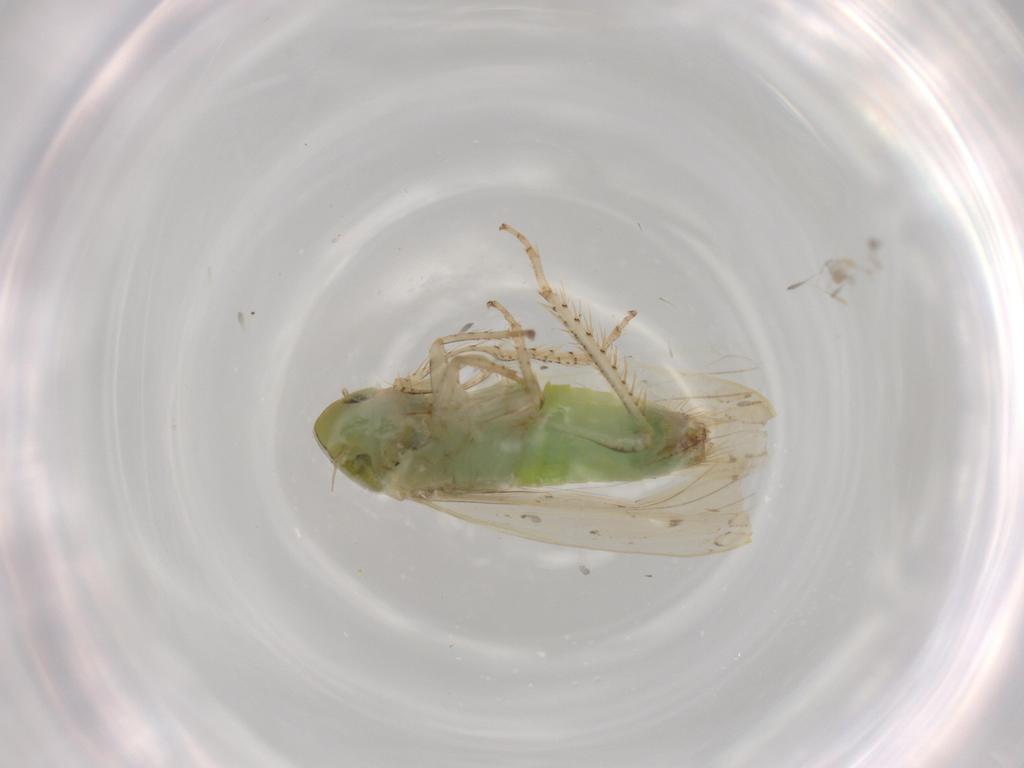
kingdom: Animalia
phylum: Arthropoda
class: Insecta
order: Hemiptera
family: Cicadellidae
